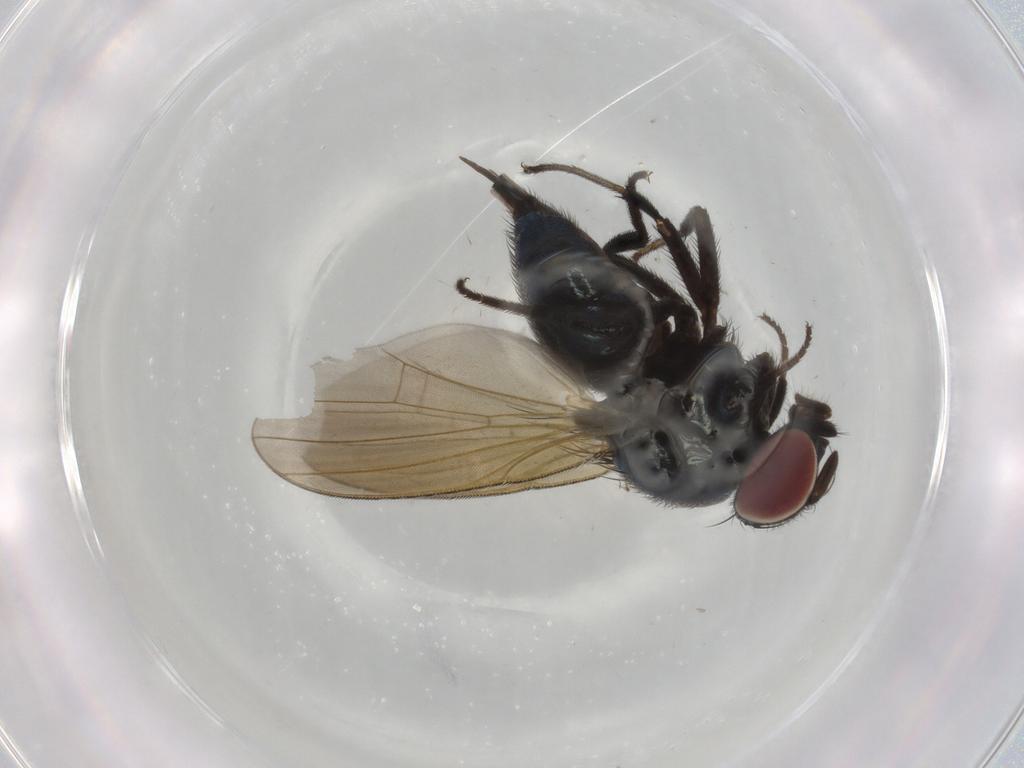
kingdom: Animalia
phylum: Arthropoda
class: Insecta
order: Diptera
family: Lonchaeidae
